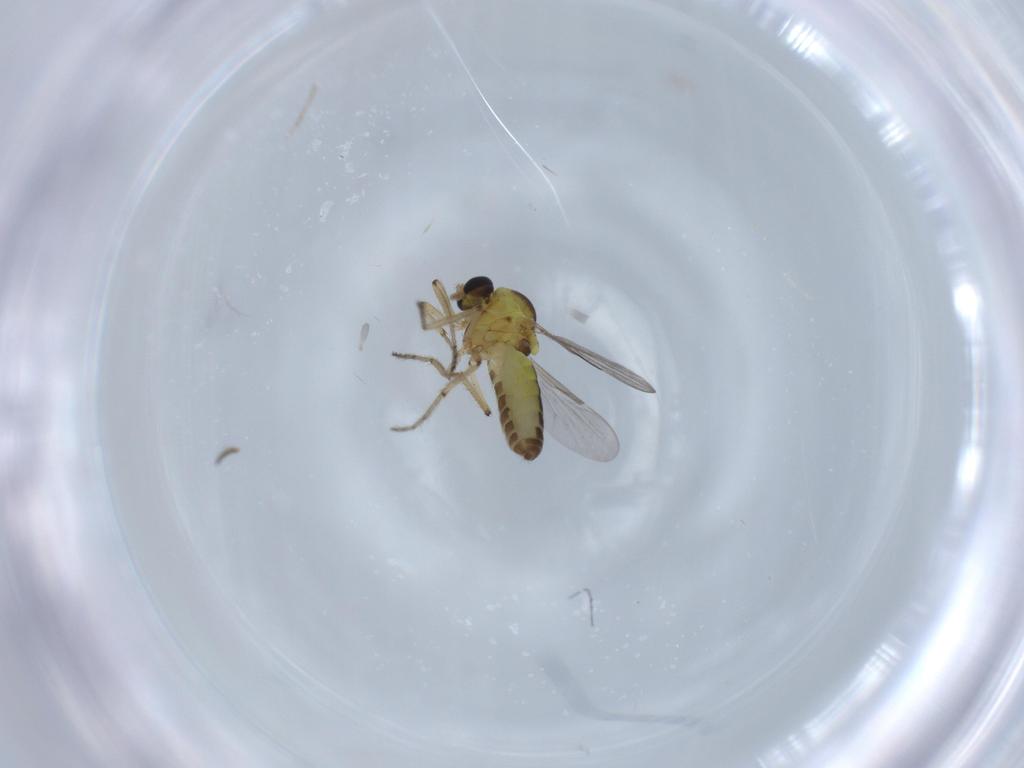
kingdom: Animalia
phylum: Arthropoda
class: Insecta
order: Diptera
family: Ceratopogonidae
